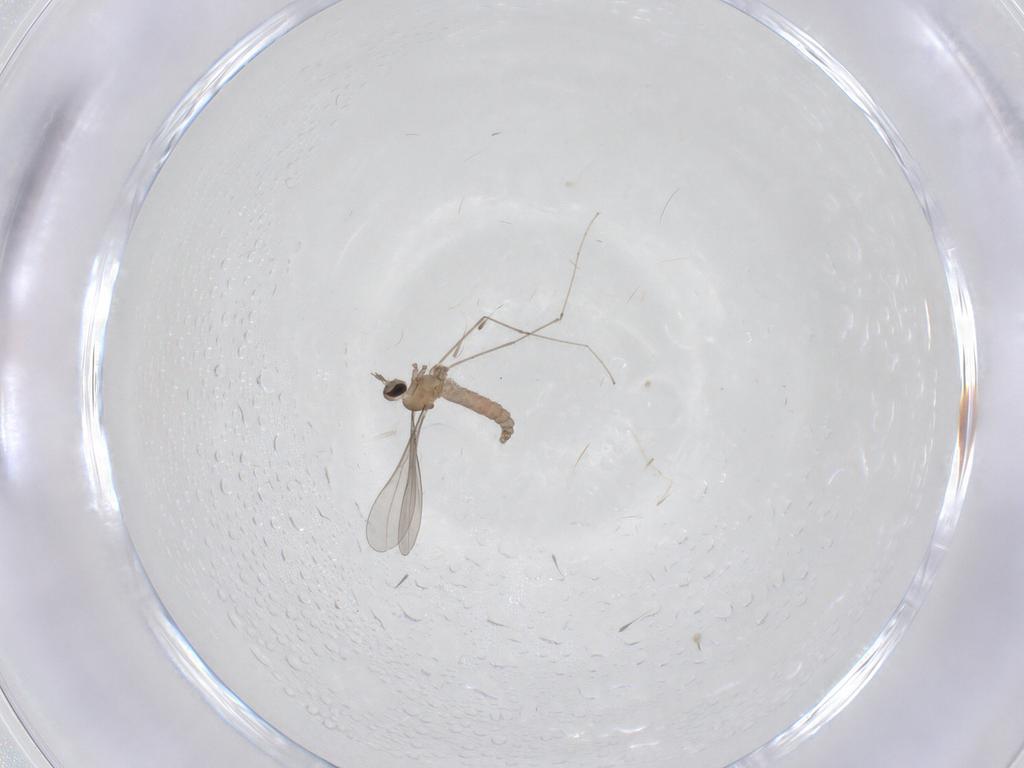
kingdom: Animalia
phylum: Arthropoda
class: Insecta
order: Diptera
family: Cecidomyiidae
